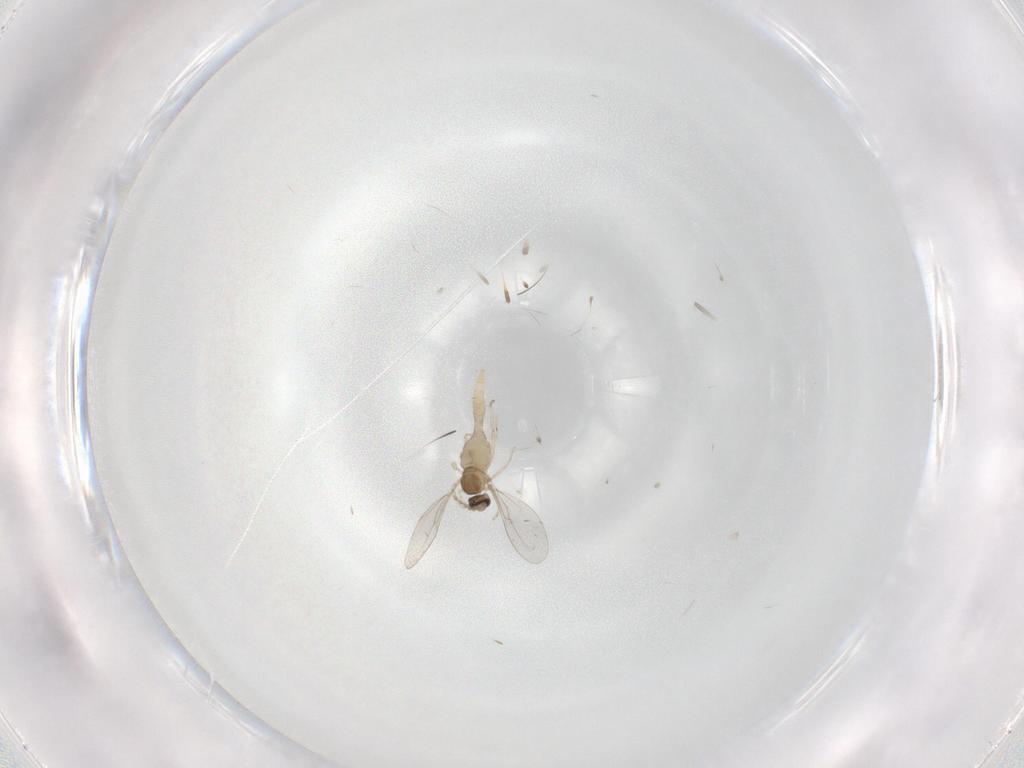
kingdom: Animalia
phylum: Arthropoda
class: Insecta
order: Diptera
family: Cecidomyiidae
